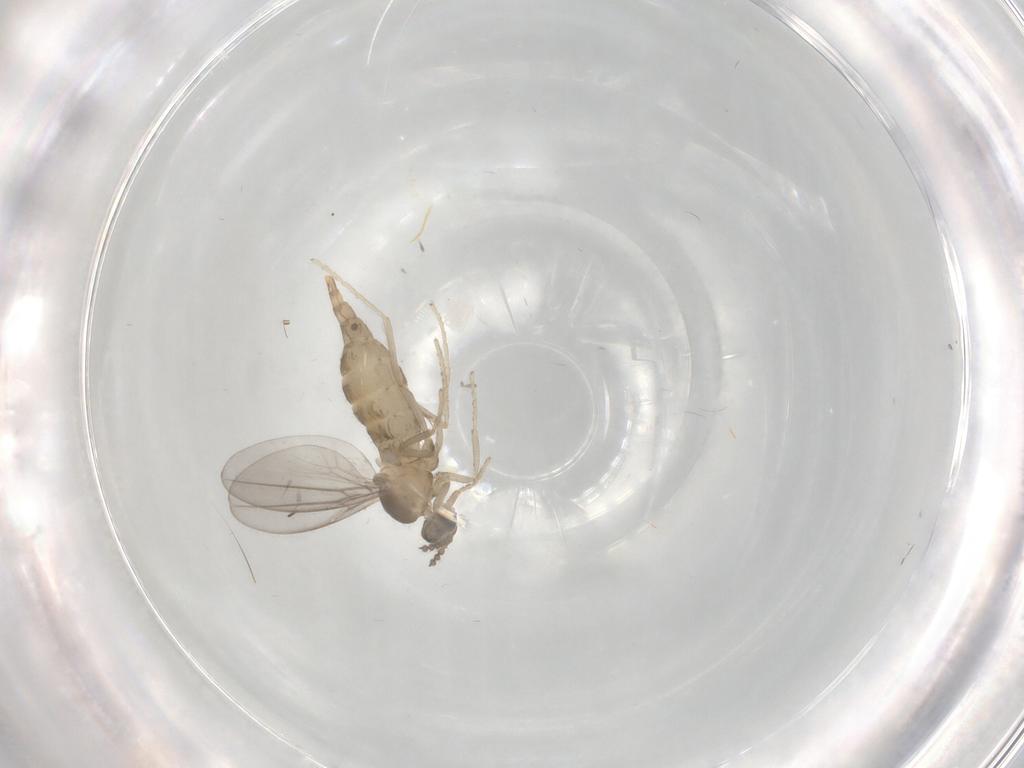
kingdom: Animalia
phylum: Arthropoda
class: Insecta
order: Diptera
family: Cecidomyiidae
